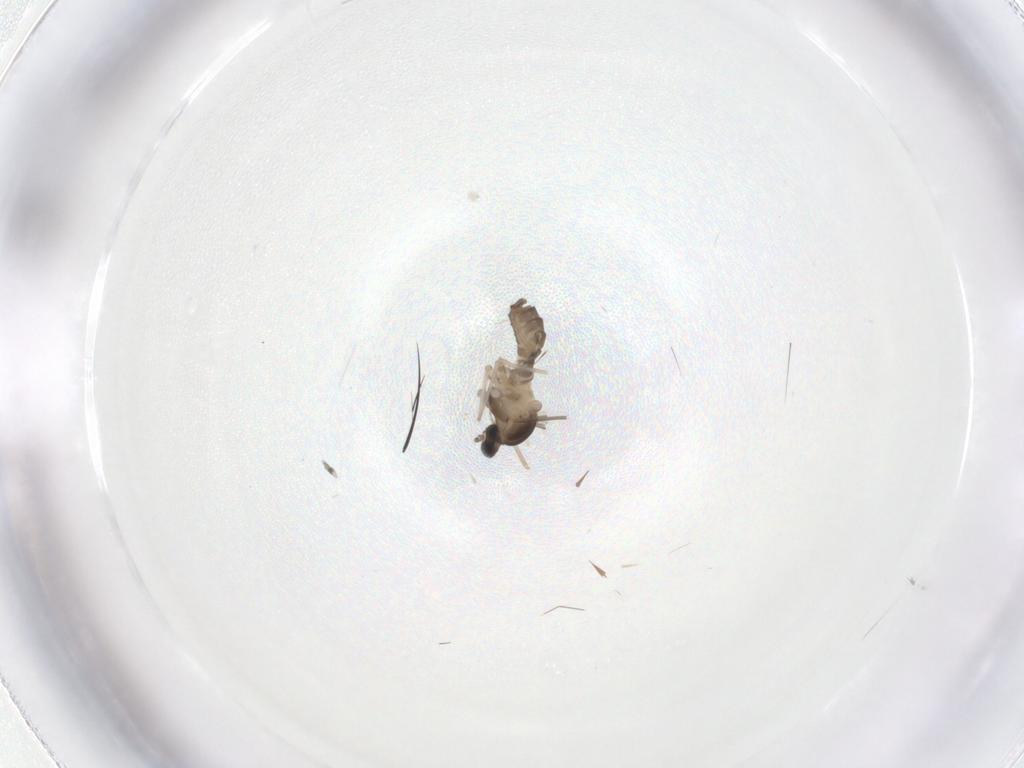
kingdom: Animalia
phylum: Arthropoda
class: Insecta
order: Diptera
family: Cecidomyiidae
